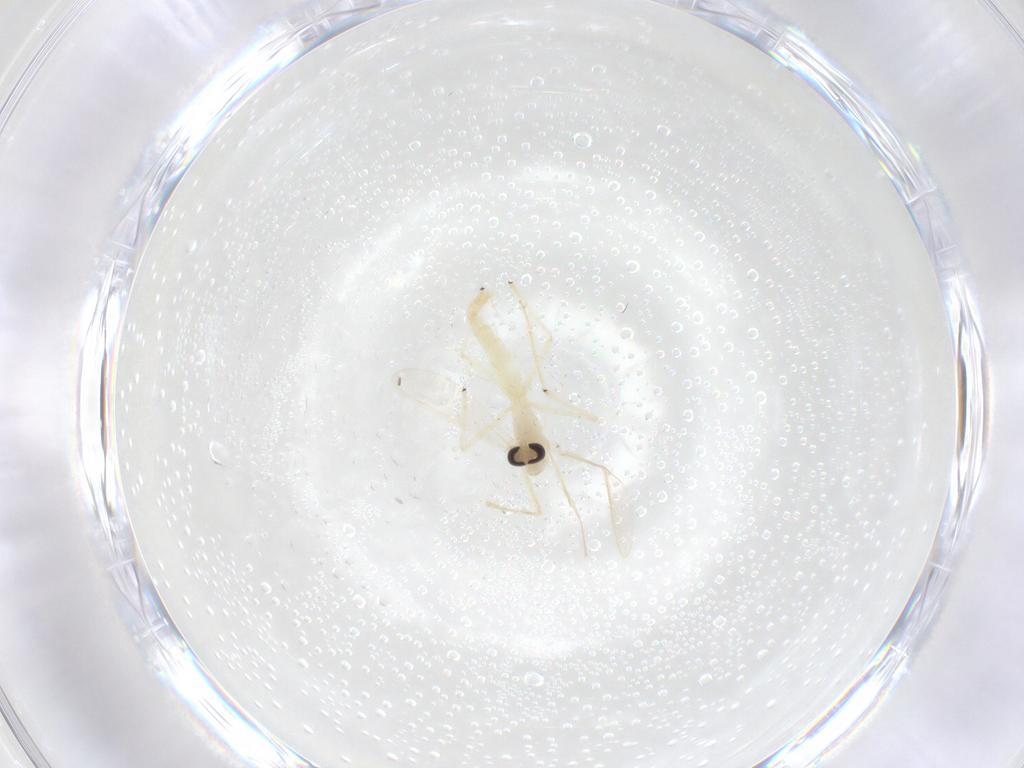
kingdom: Animalia
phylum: Arthropoda
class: Insecta
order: Diptera
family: Chironomidae
